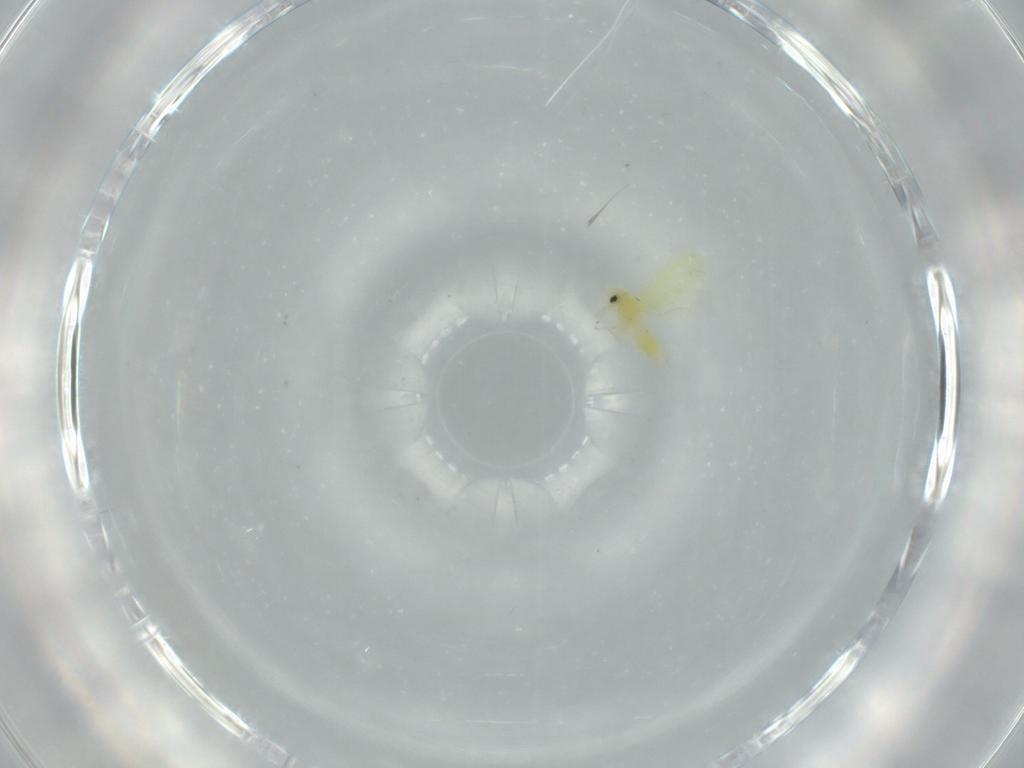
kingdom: Animalia
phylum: Arthropoda
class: Insecta
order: Hemiptera
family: Aleyrodidae
